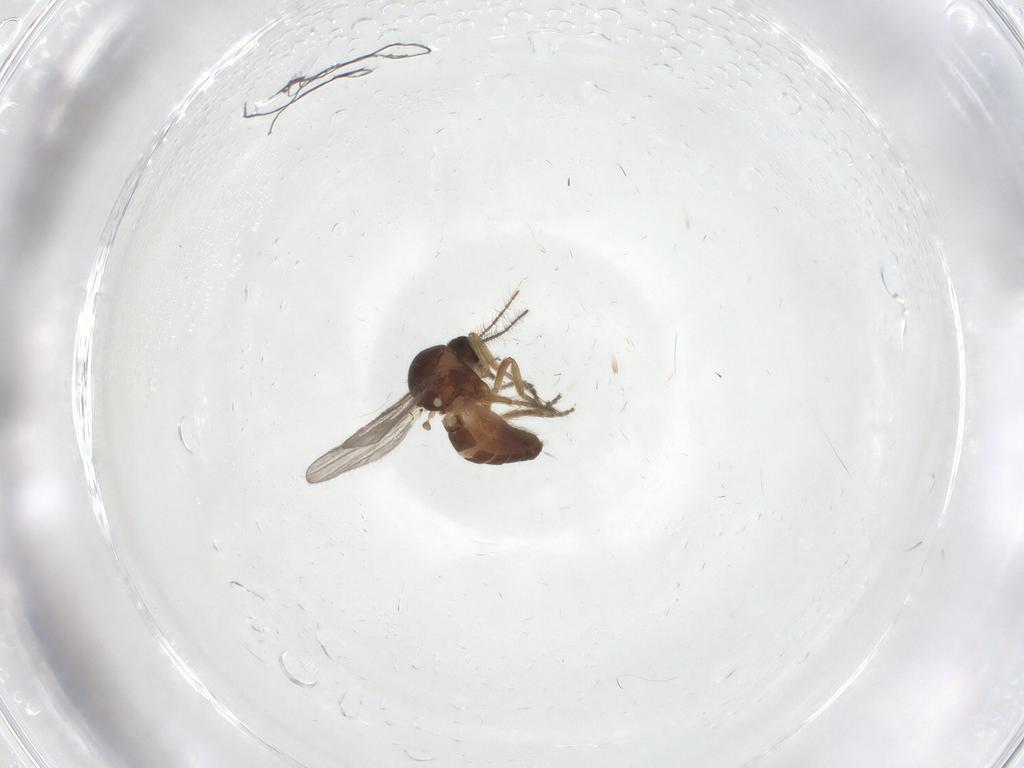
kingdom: Animalia
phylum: Arthropoda
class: Insecta
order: Diptera
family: Ceratopogonidae
